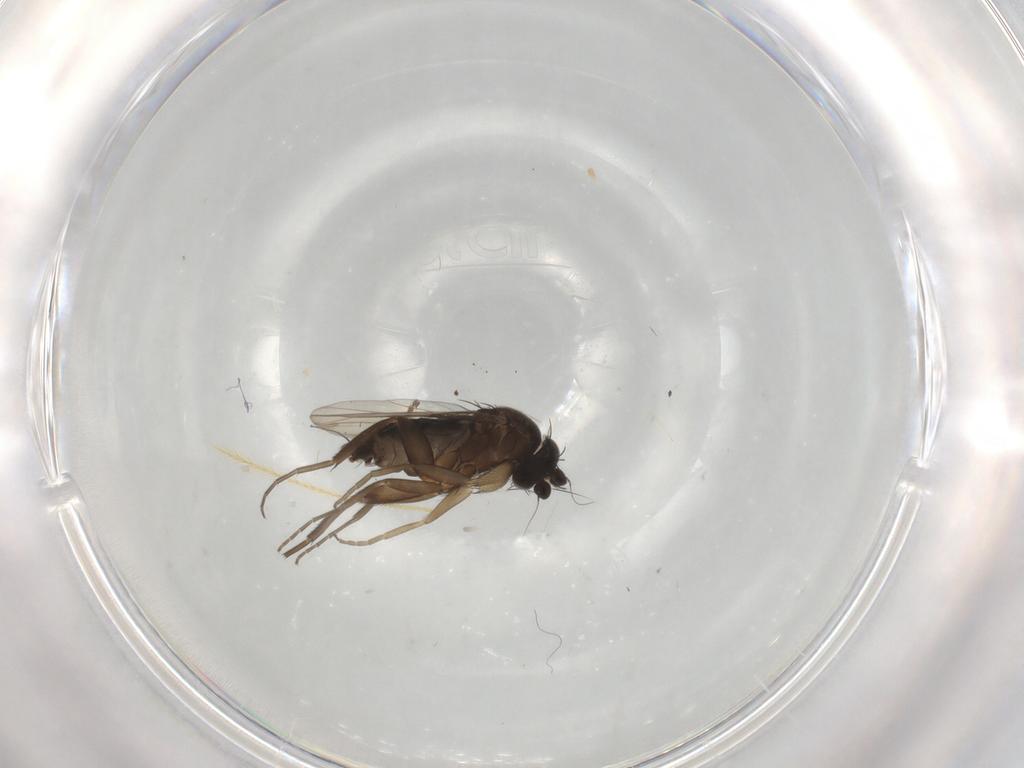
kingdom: Animalia
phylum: Arthropoda
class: Insecta
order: Diptera
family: Phoridae
